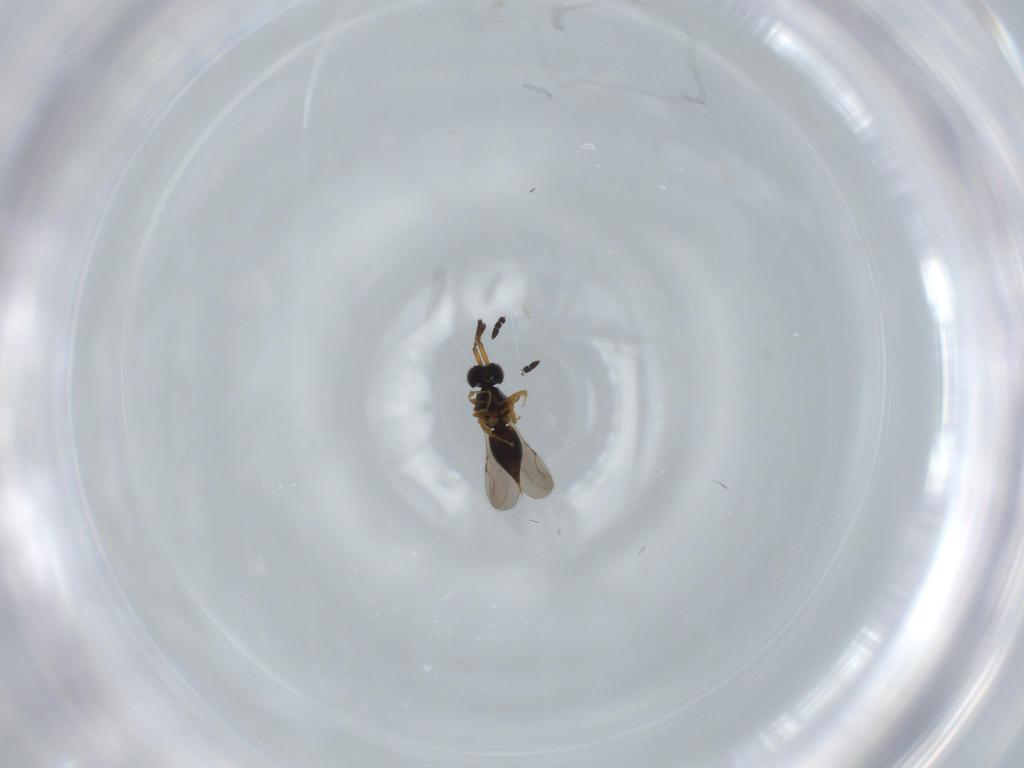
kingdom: Animalia
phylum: Arthropoda
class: Insecta
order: Hymenoptera
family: Ceraphronidae
